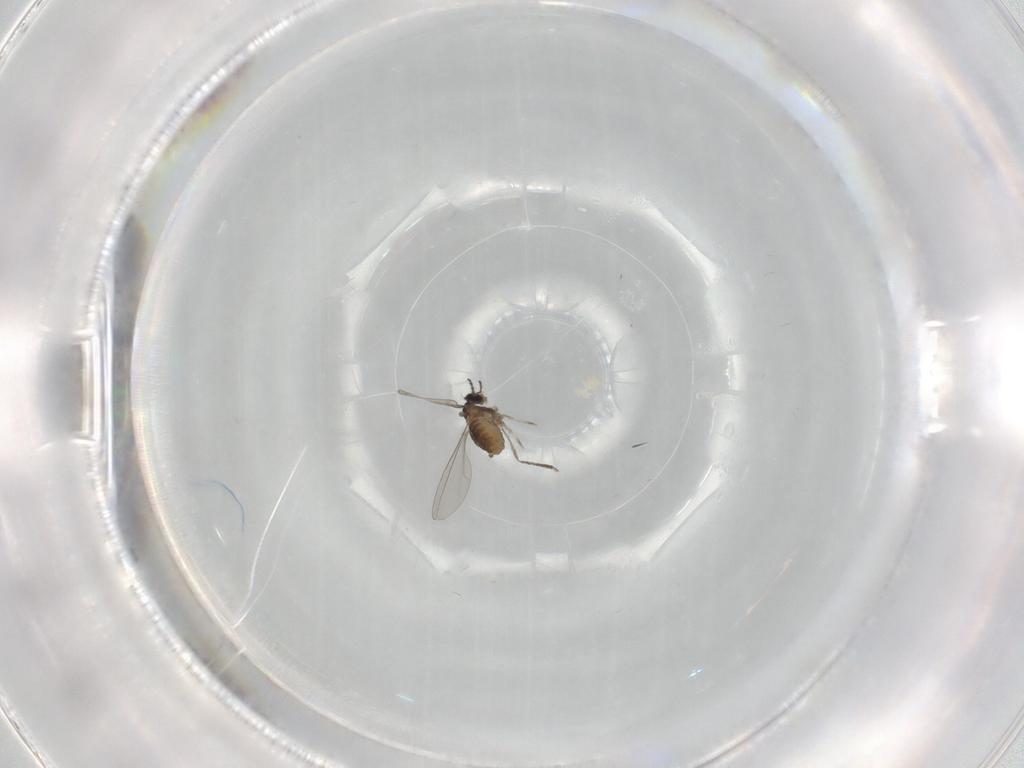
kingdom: Animalia
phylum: Arthropoda
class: Insecta
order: Diptera
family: Cecidomyiidae
